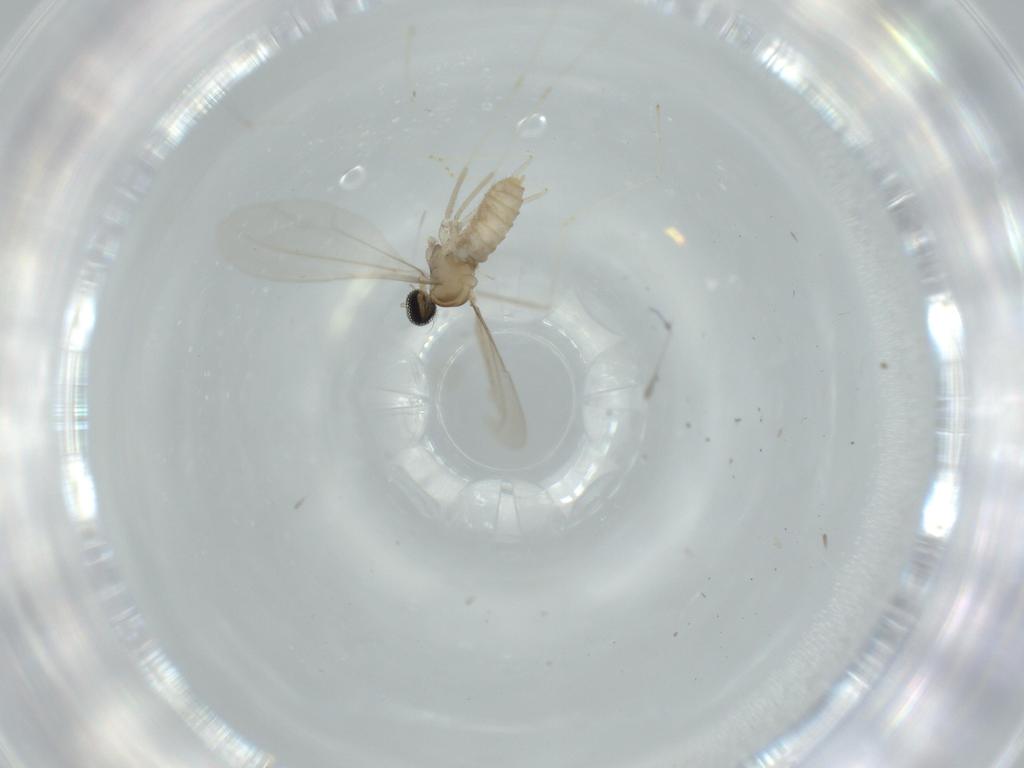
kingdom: Animalia
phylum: Arthropoda
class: Insecta
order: Diptera
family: Cecidomyiidae
